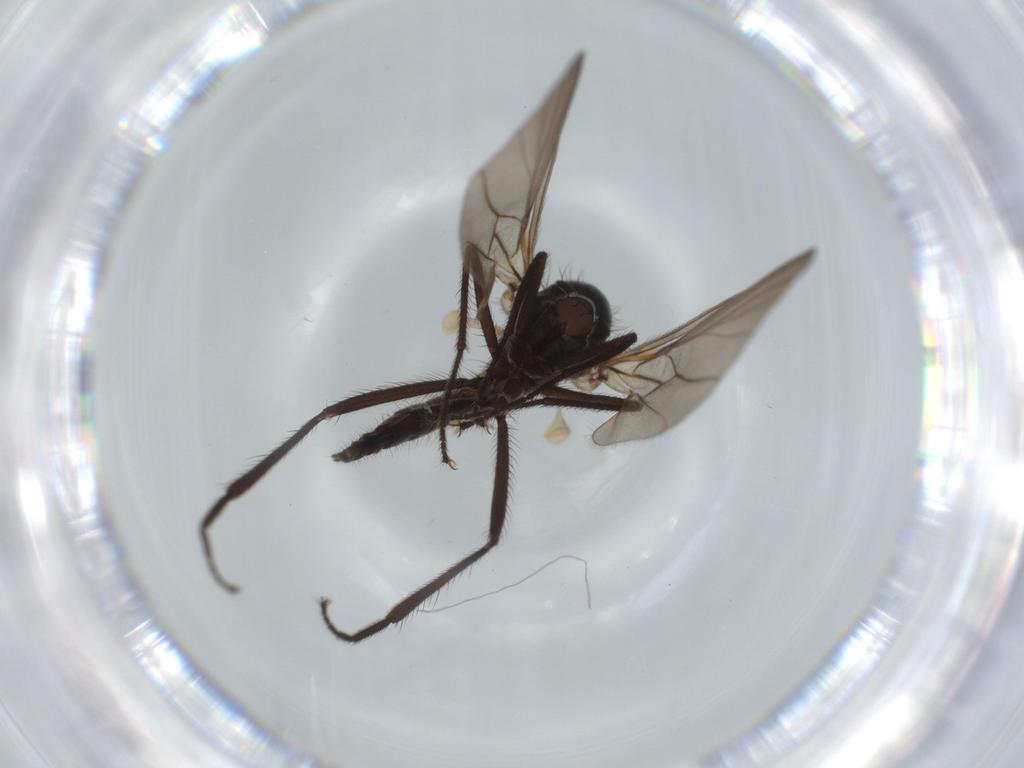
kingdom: Animalia
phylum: Arthropoda
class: Insecta
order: Diptera
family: Hybotidae
